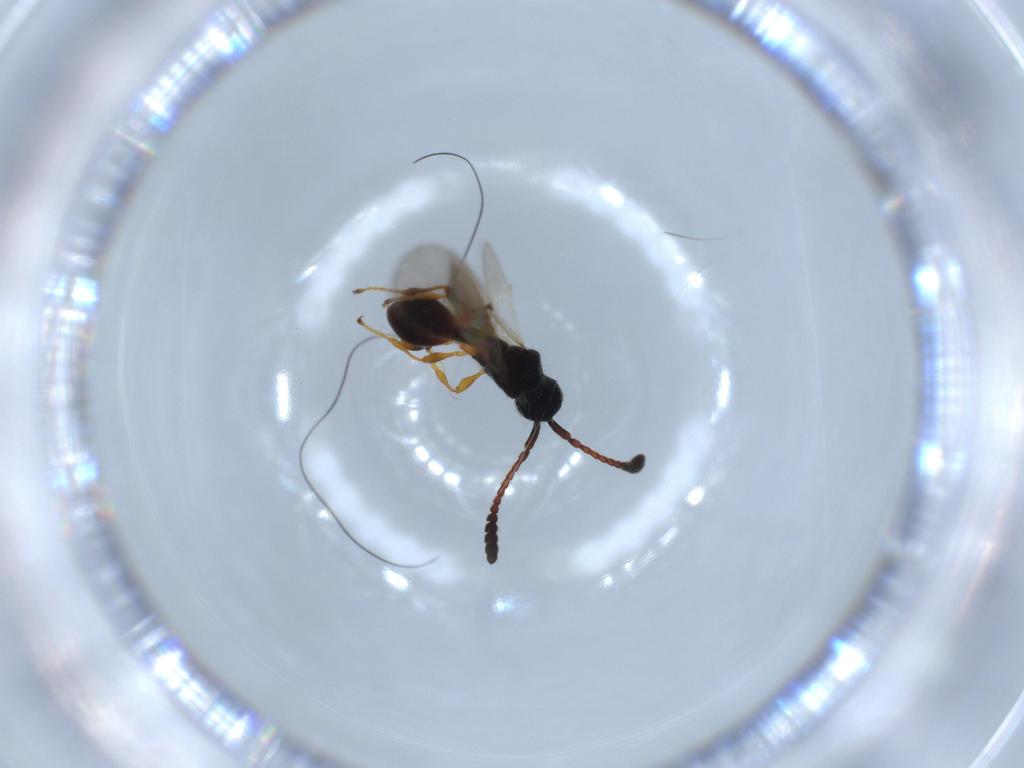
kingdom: Animalia
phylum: Arthropoda
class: Insecta
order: Hymenoptera
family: Diapriidae
